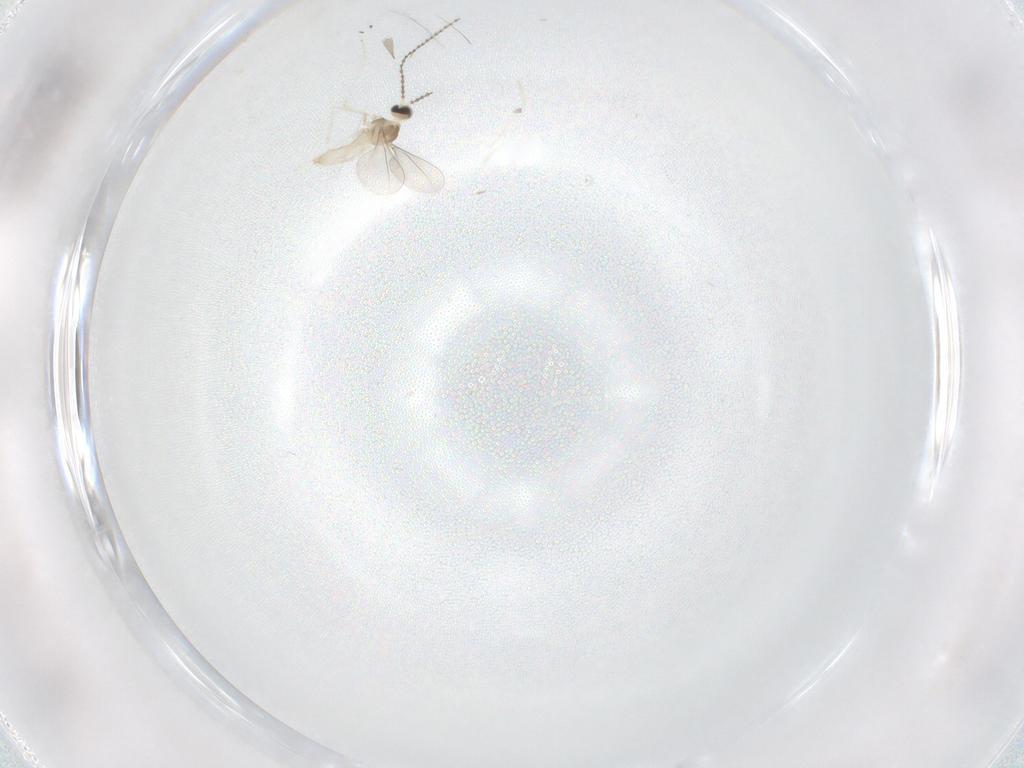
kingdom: Animalia
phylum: Arthropoda
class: Insecta
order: Diptera
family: Cecidomyiidae
